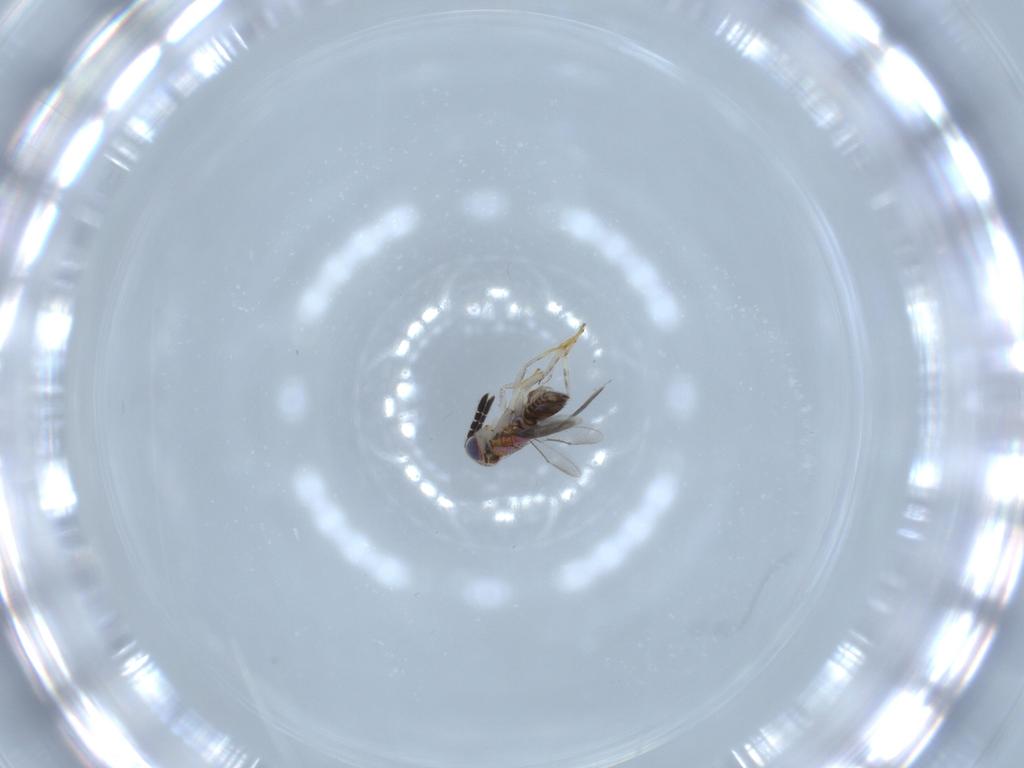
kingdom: Animalia
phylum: Arthropoda
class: Insecta
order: Hymenoptera
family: Aphelinidae
